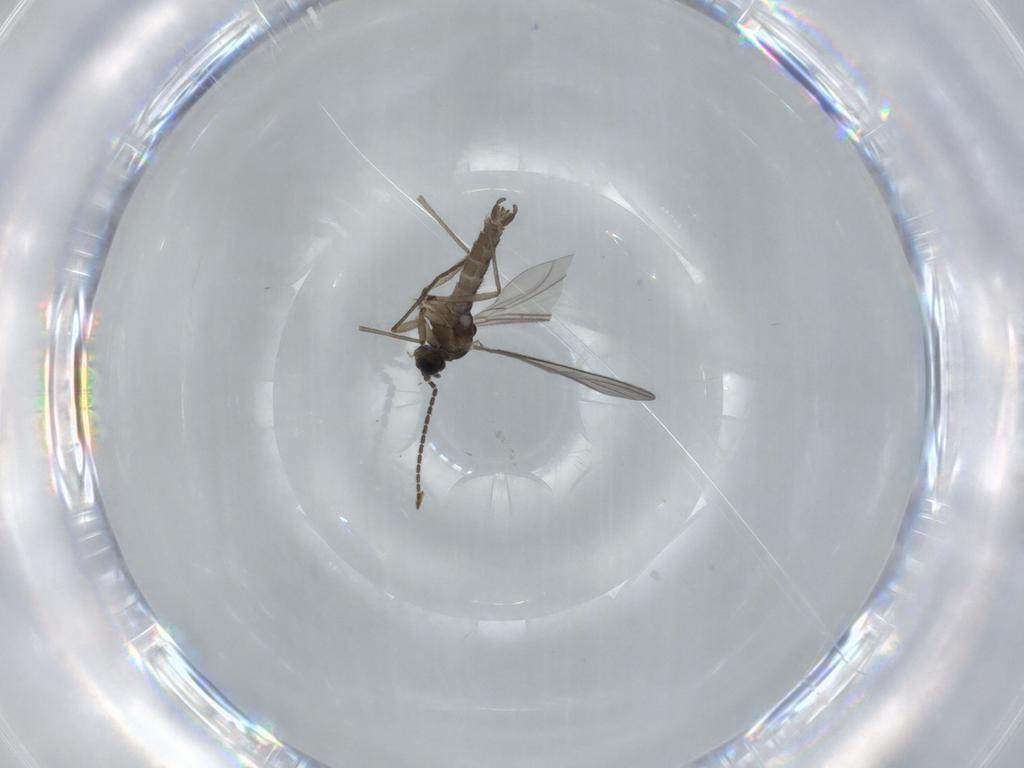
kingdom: Animalia
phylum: Arthropoda
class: Insecta
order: Diptera
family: Sciaridae
